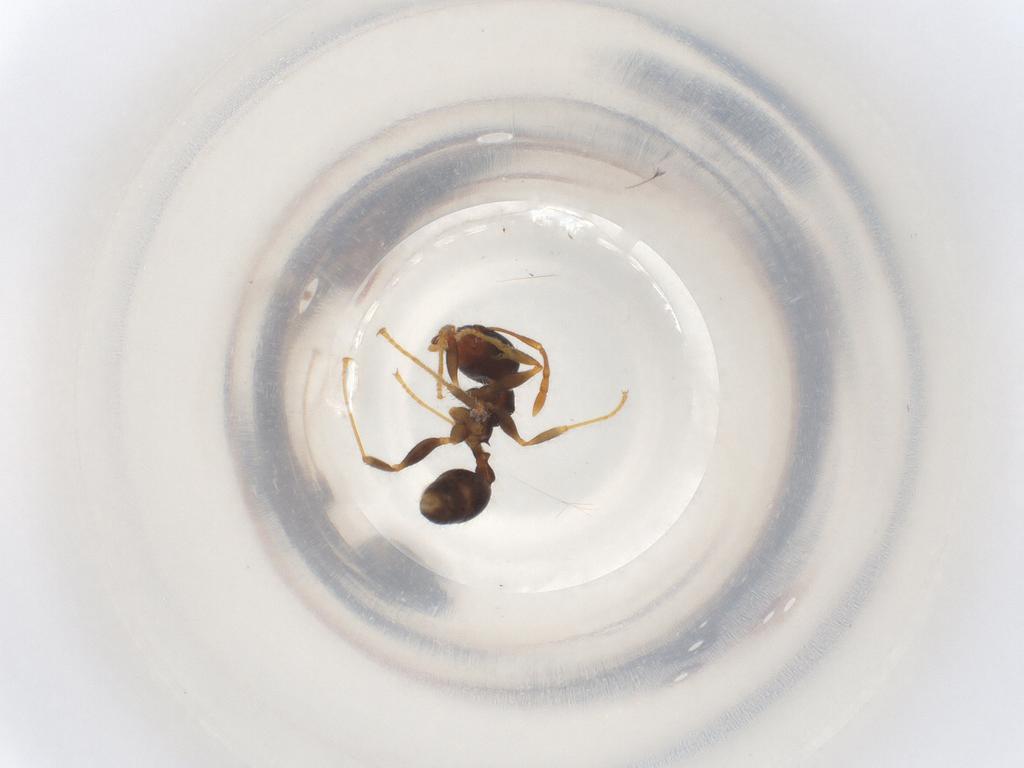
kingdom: Animalia
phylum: Arthropoda
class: Insecta
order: Hymenoptera
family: Formicidae
